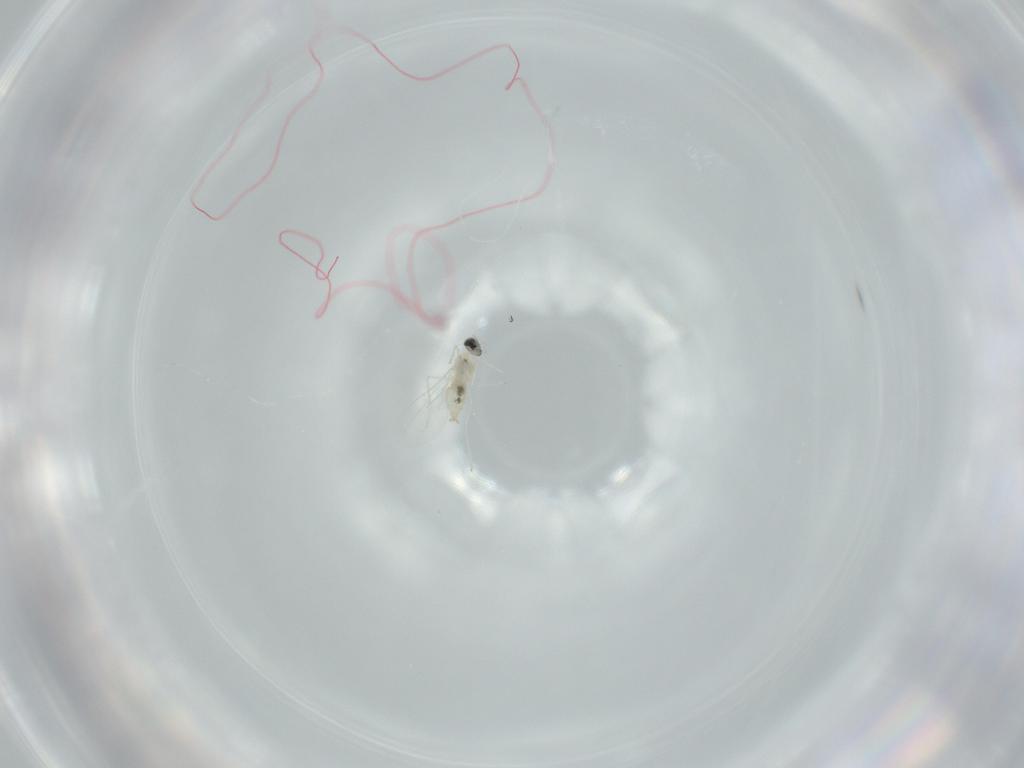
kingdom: Animalia
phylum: Arthropoda
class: Insecta
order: Diptera
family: Cecidomyiidae
